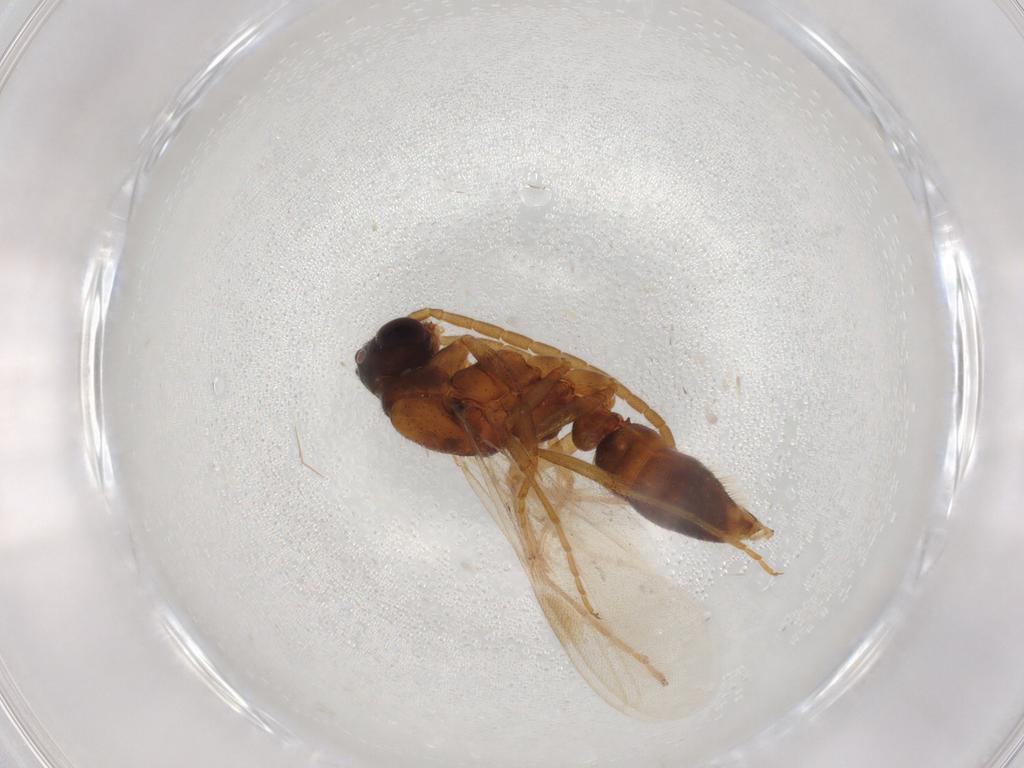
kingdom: Animalia
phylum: Arthropoda
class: Insecta
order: Hymenoptera
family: Formicidae
